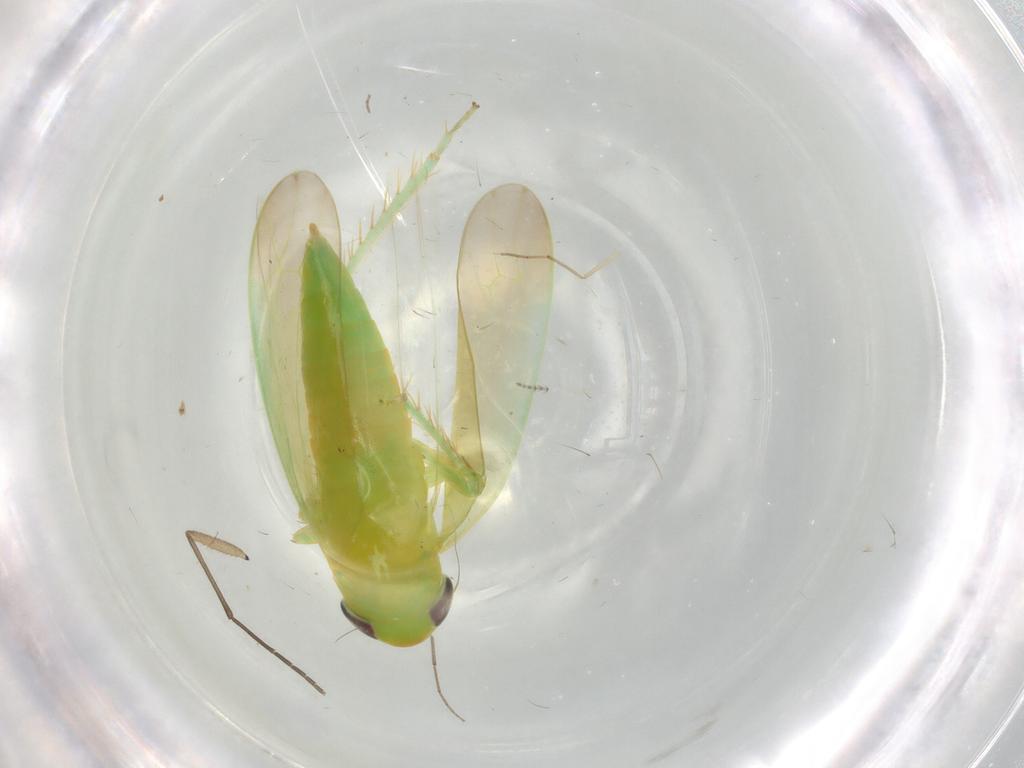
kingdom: Animalia
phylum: Arthropoda
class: Insecta
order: Hemiptera
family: Cicadellidae
